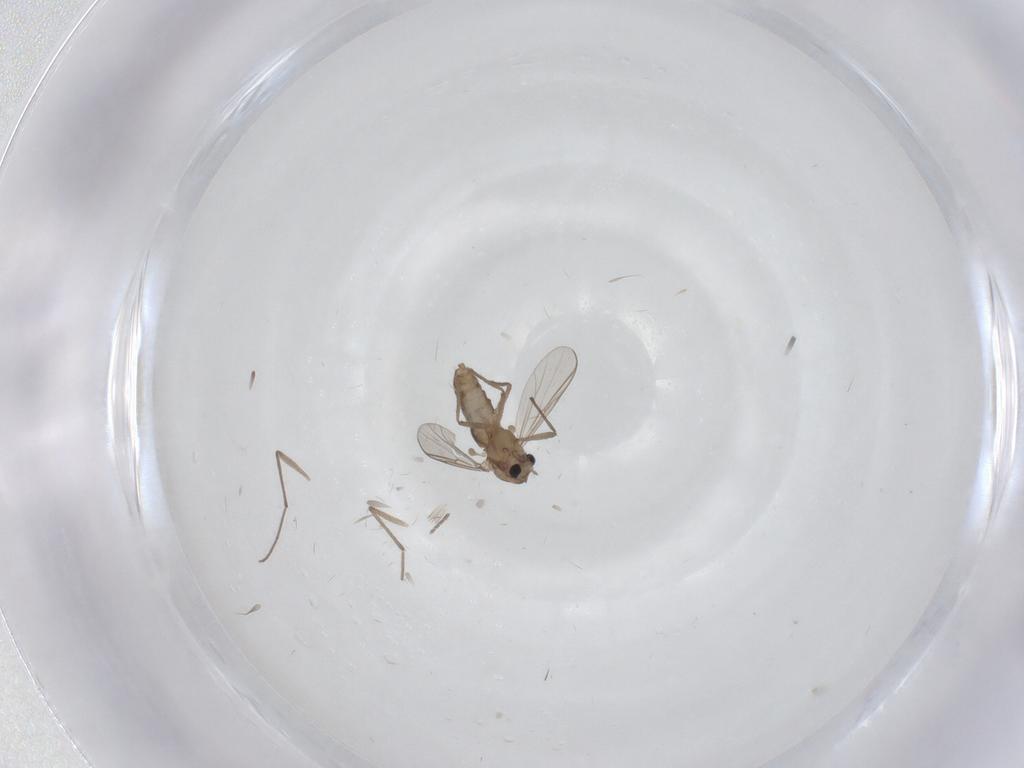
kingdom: Animalia
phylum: Arthropoda
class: Insecta
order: Diptera
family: Chironomidae
